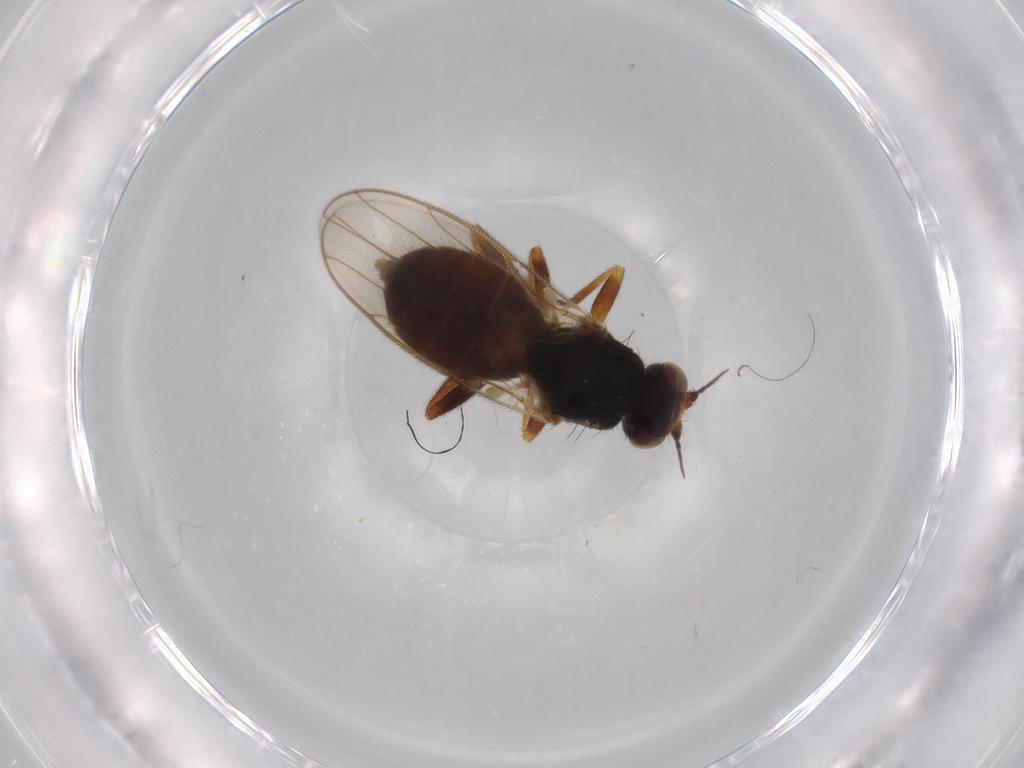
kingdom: Animalia
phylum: Arthropoda
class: Insecta
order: Diptera
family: Chloropidae
